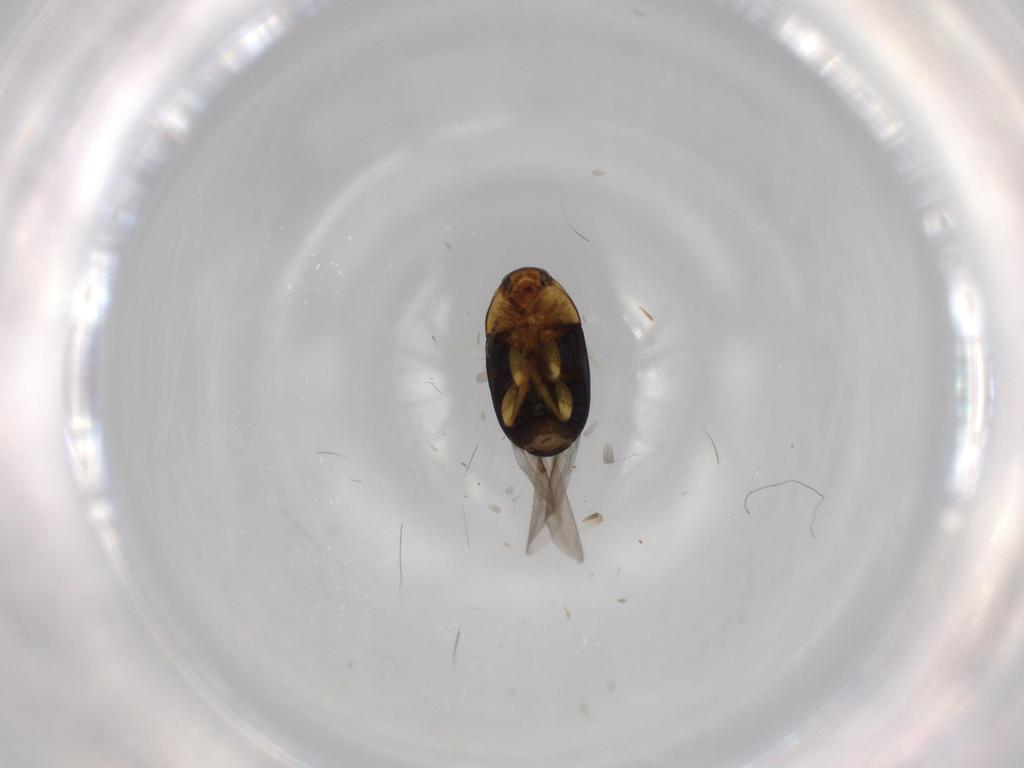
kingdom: Animalia
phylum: Arthropoda
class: Insecta
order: Coleoptera
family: Chrysomelidae
